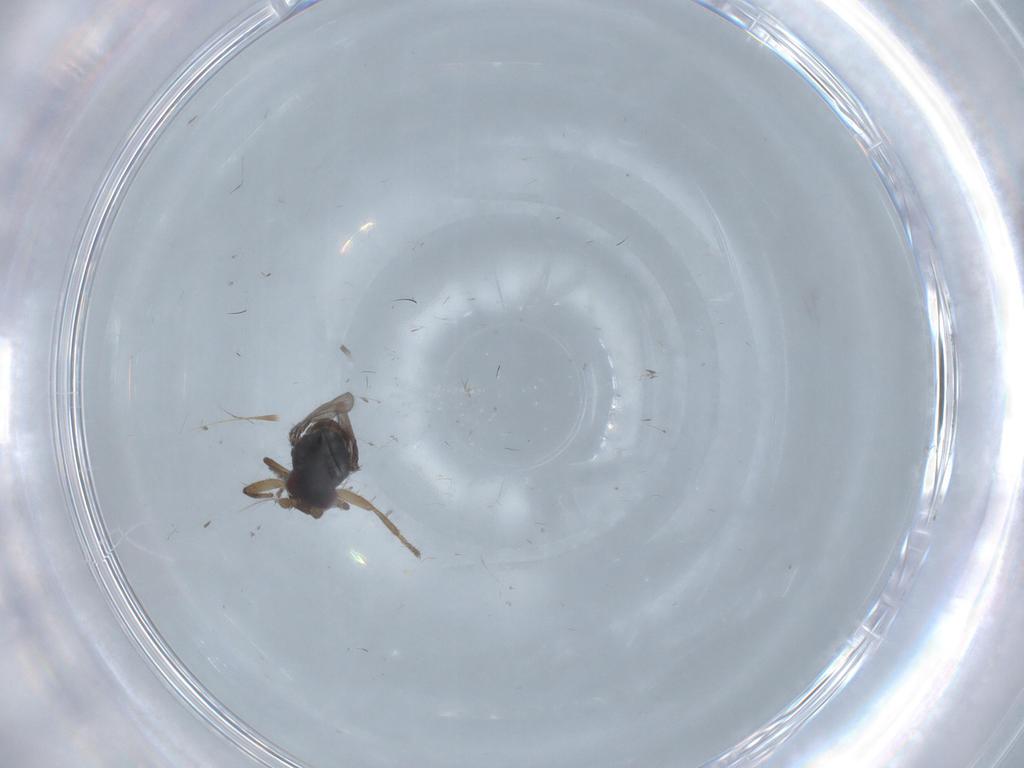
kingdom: Animalia
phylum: Arthropoda
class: Insecta
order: Diptera
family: Sphaeroceridae
